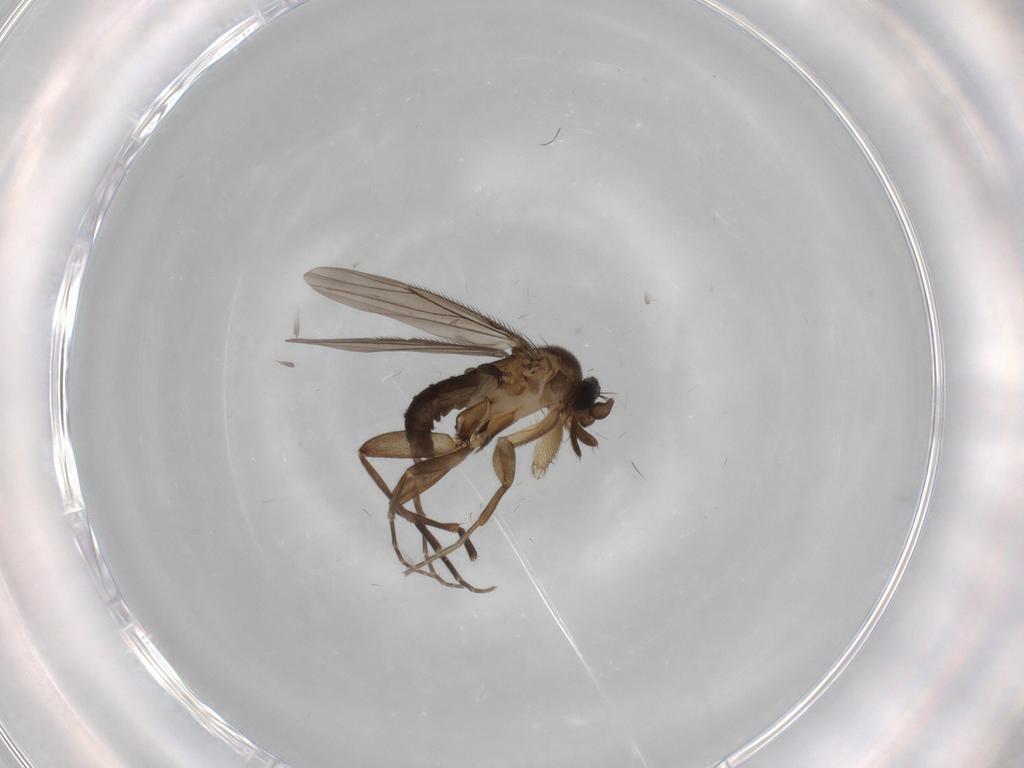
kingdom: Animalia
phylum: Arthropoda
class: Insecta
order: Diptera
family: Phoridae
